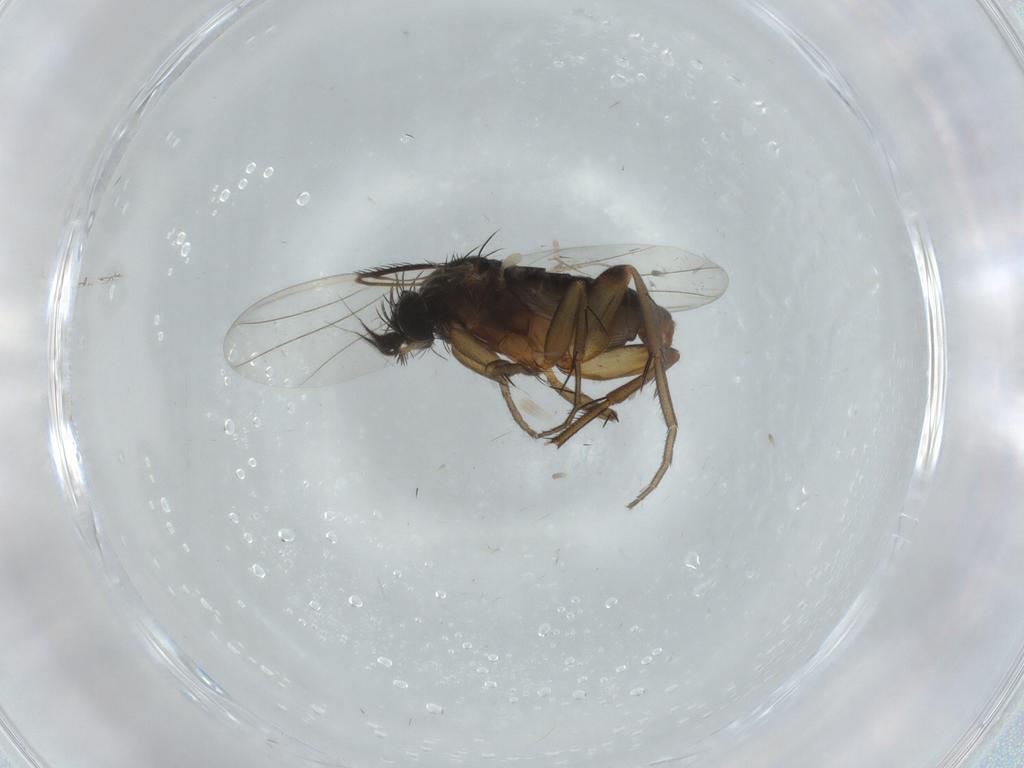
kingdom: Animalia
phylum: Arthropoda
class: Insecta
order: Diptera
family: Phoridae
